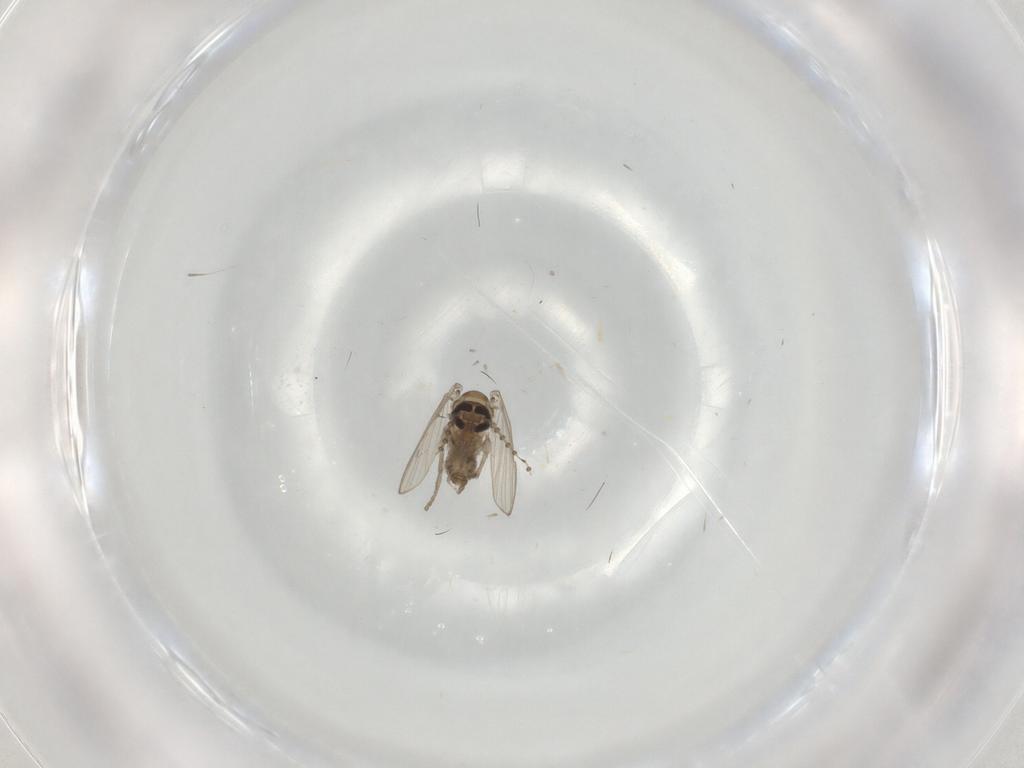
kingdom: Animalia
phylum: Arthropoda
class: Insecta
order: Diptera
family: Psychodidae
